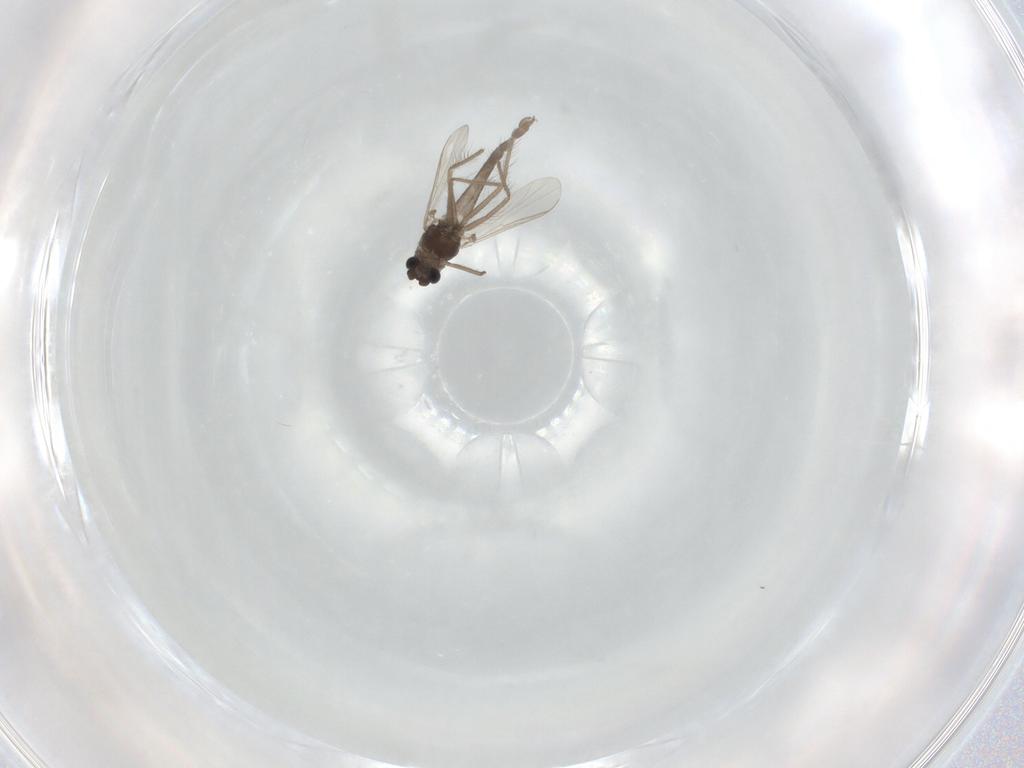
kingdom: Animalia
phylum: Arthropoda
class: Insecta
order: Diptera
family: Chironomidae
